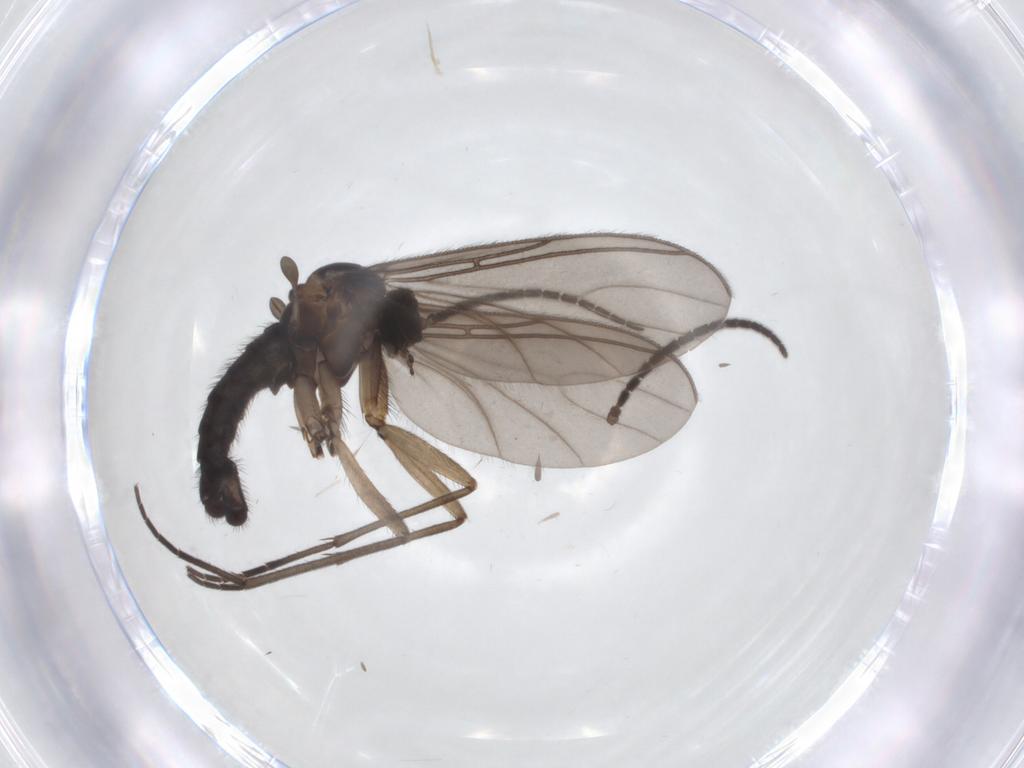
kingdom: Animalia
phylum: Arthropoda
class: Insecta
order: Diptera
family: Sciaridae
